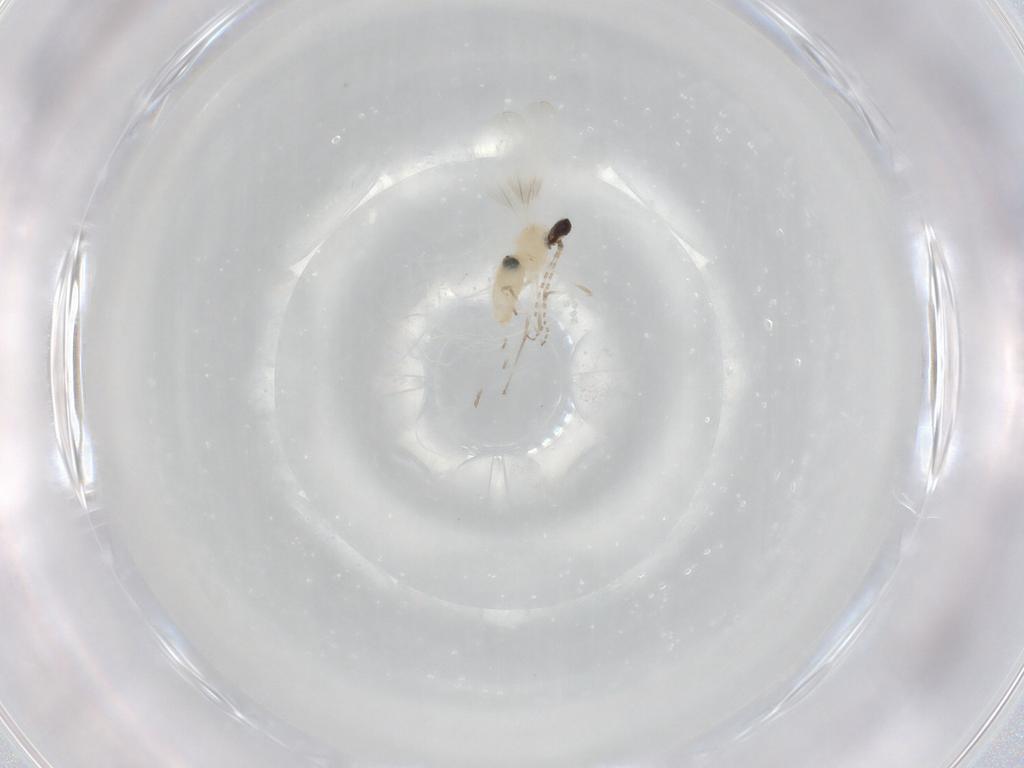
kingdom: Animalia
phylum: Arthropoda
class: Insecta
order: Diptera
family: Cecidomyiidae
